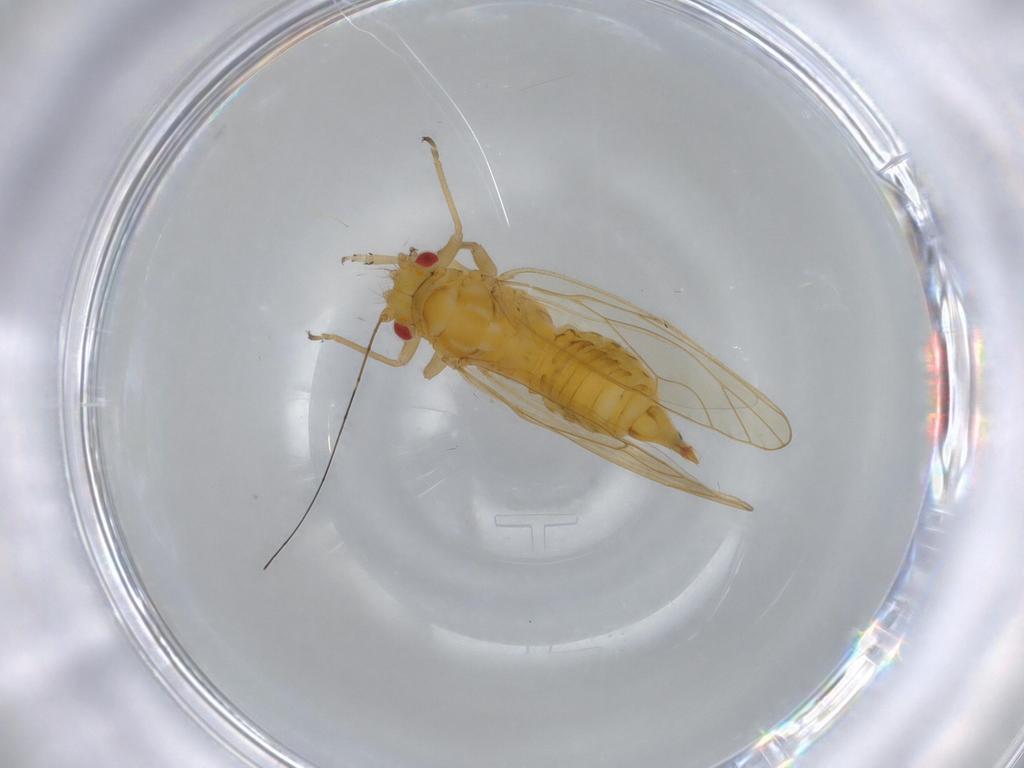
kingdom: Animalia
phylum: Arthropoda
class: Insecta
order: Hemiptera
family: Psyllidae
